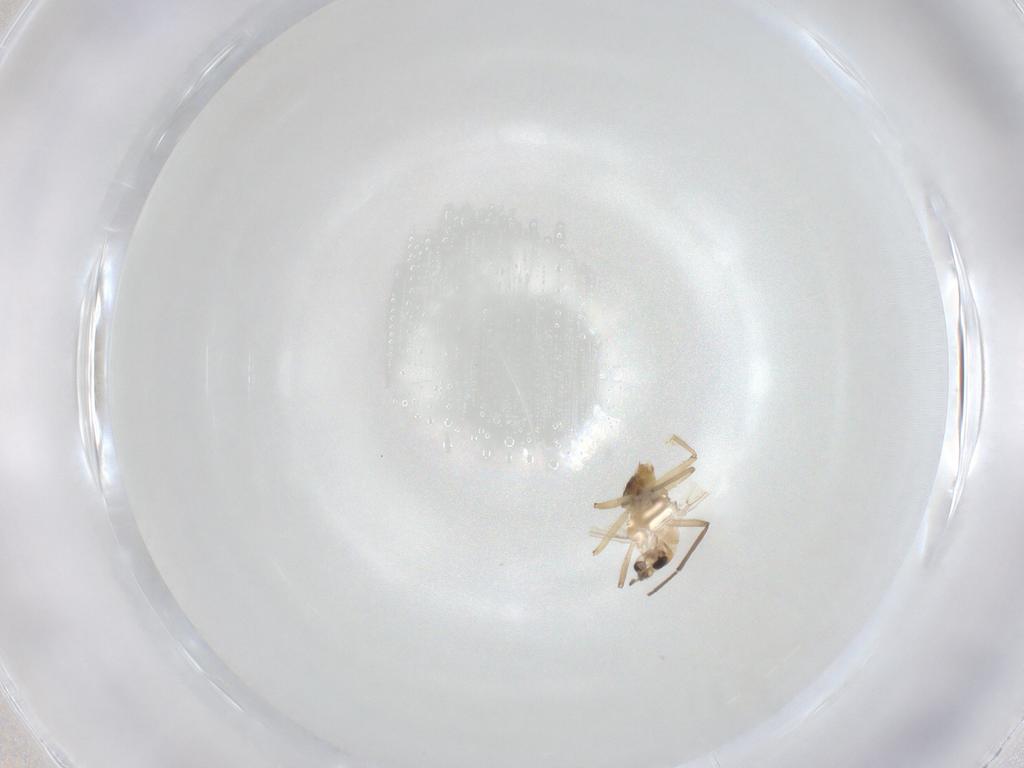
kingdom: Animalia
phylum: Arthropoda
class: Insecta
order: Diptera
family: Chironomidae
